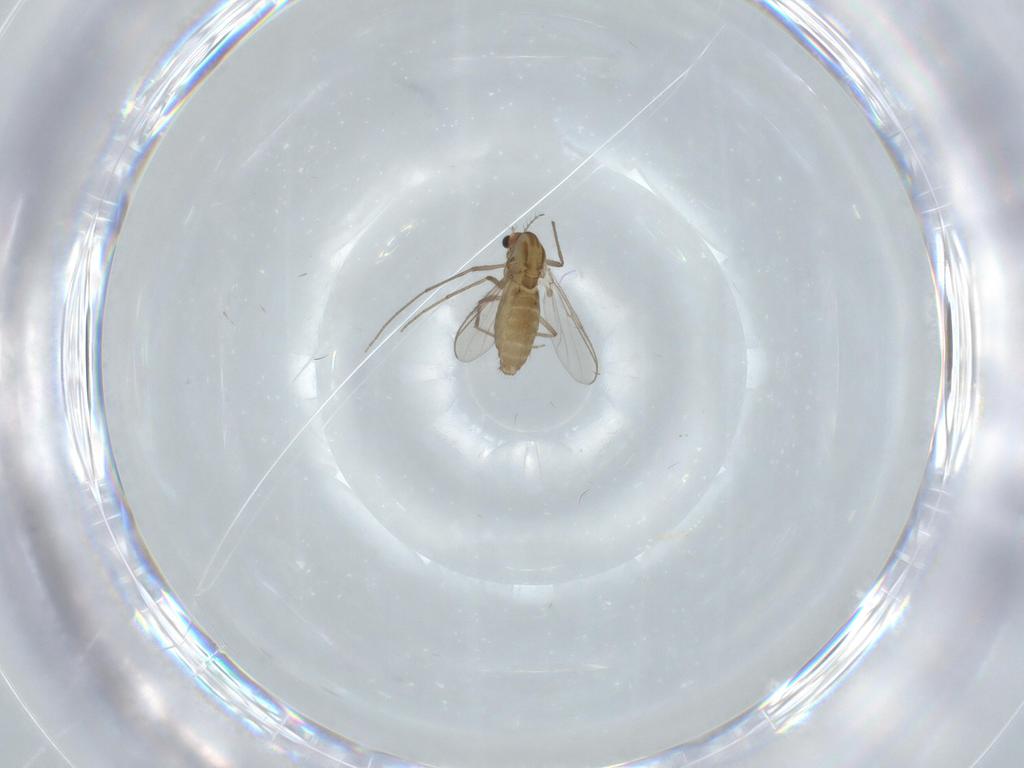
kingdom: Animalia
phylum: Arthropoda
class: Insecta
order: Diptera
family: Chironomidae
